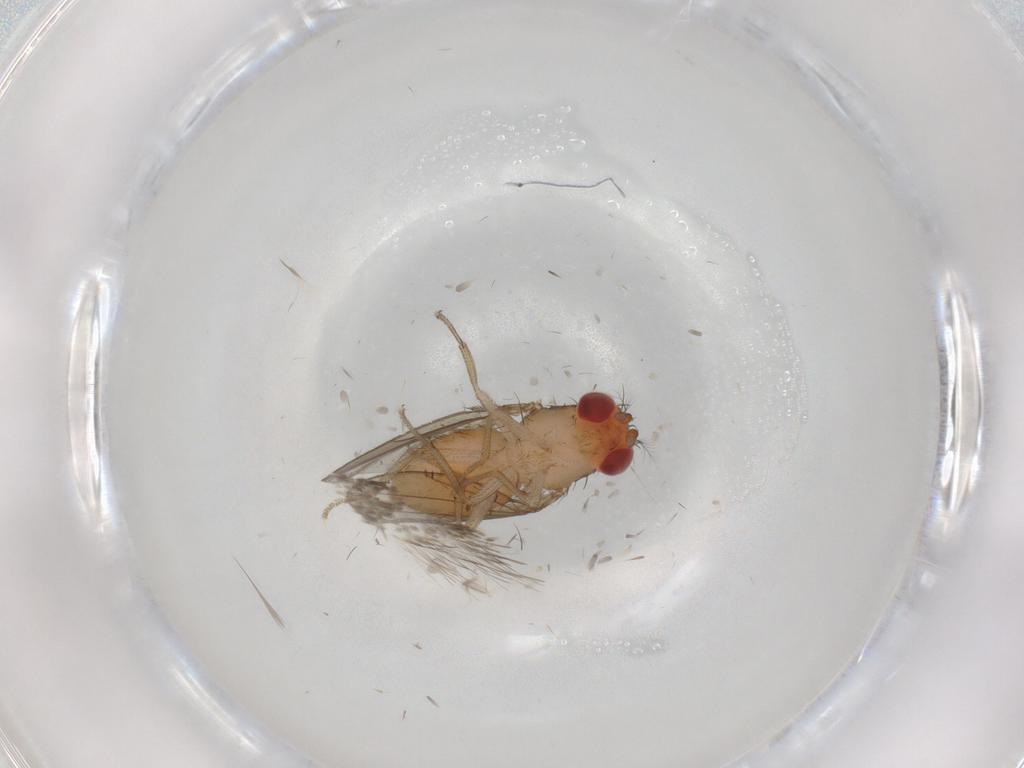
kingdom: Animalia
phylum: Arthropoda
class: Insecta
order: Diptera
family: Drosophilidae
